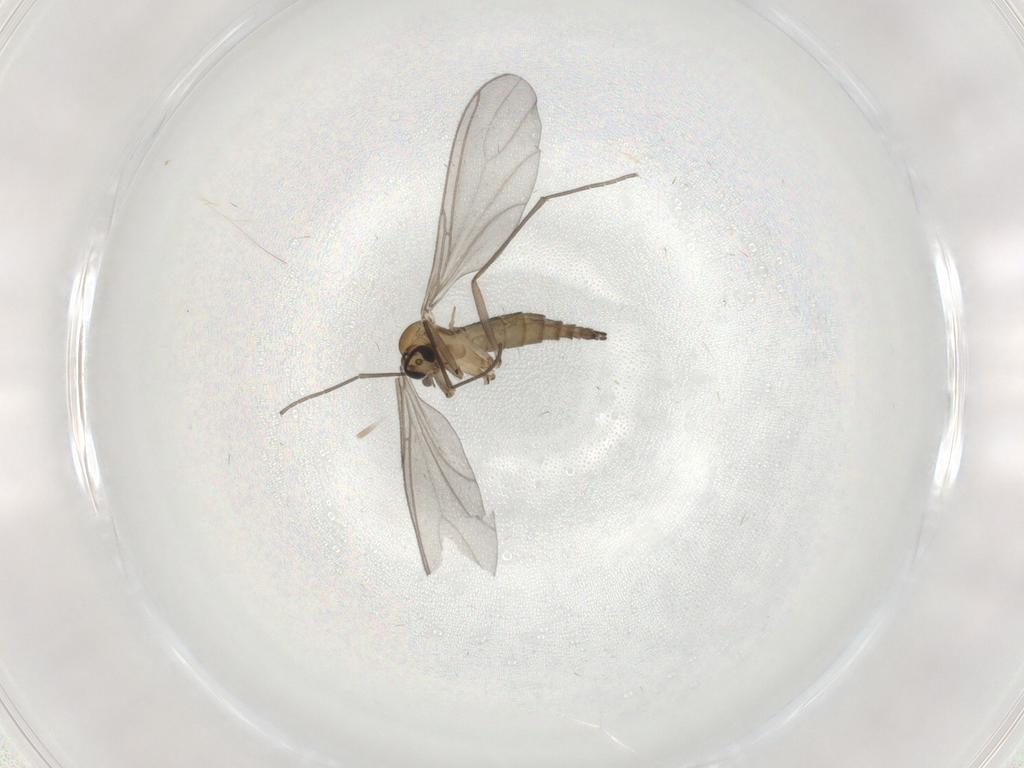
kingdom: Animalia
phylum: Arthropoda
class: Insecta
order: Diptera
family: Sciaridae
